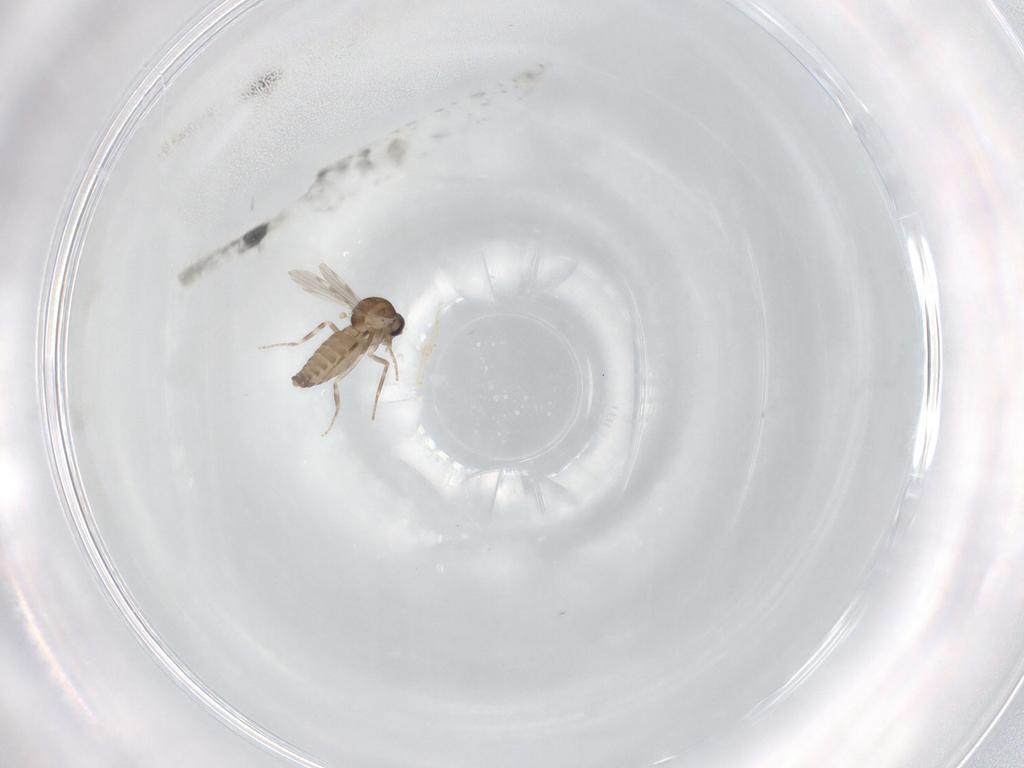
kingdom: Animalia
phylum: Arthropoda
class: Insecta
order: Diptera
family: Ceratopogonidae
